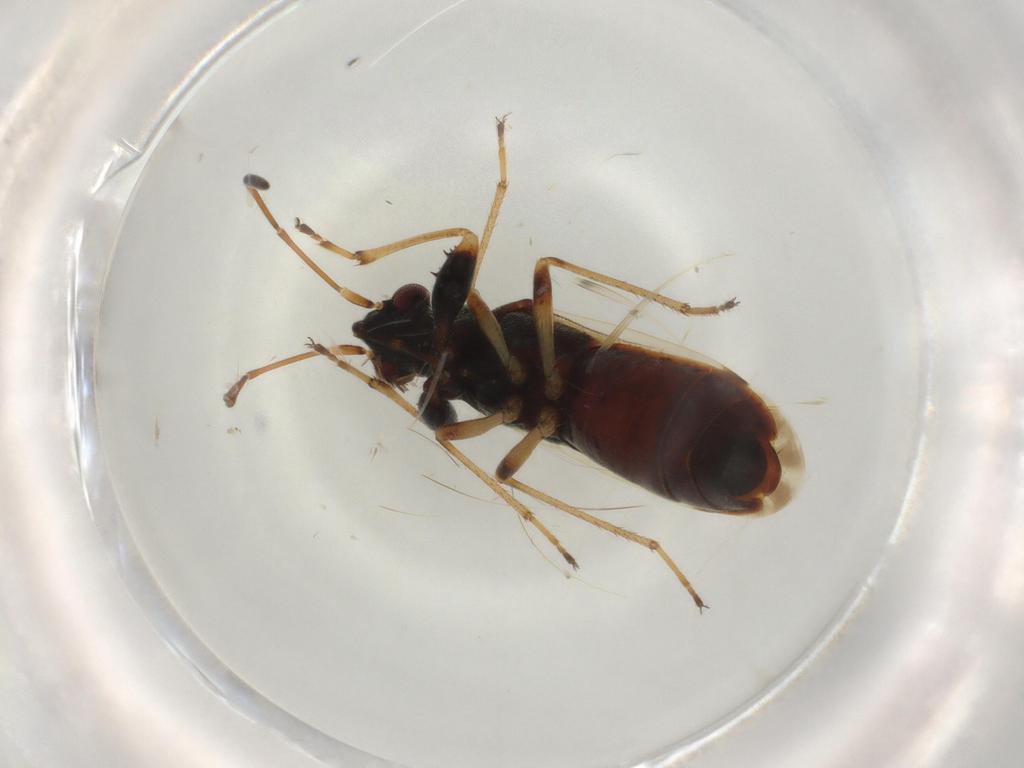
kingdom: Animalia
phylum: Arthropoda
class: Insecta
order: Hemiptera
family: Rhyparochromidae
